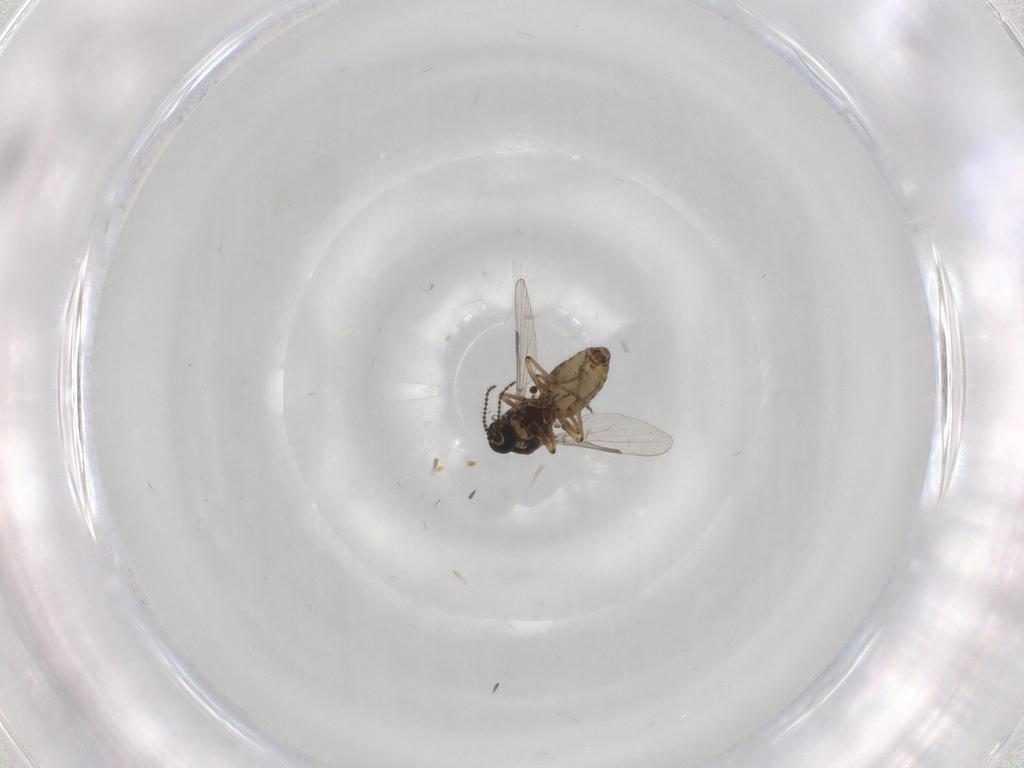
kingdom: Animalia
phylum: Arthropoda
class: Insecta
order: Diptera
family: Ceratopogonidae
